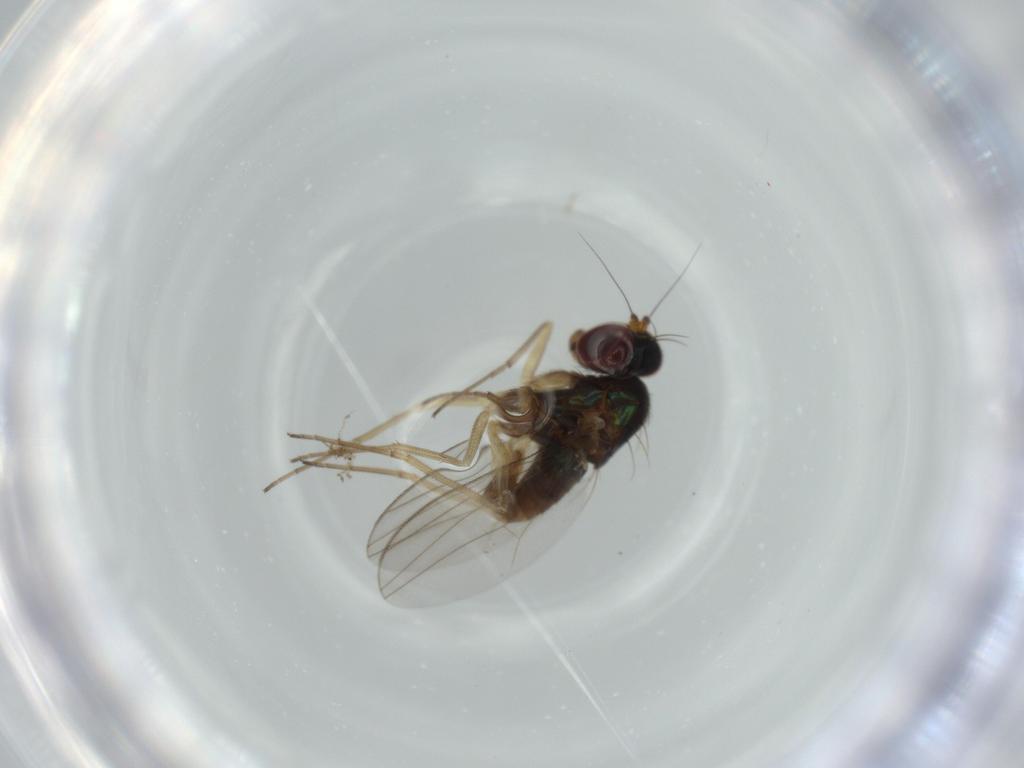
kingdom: Animalia
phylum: Arthropoda
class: Insecta
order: Diptera
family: Dolichopodidae
